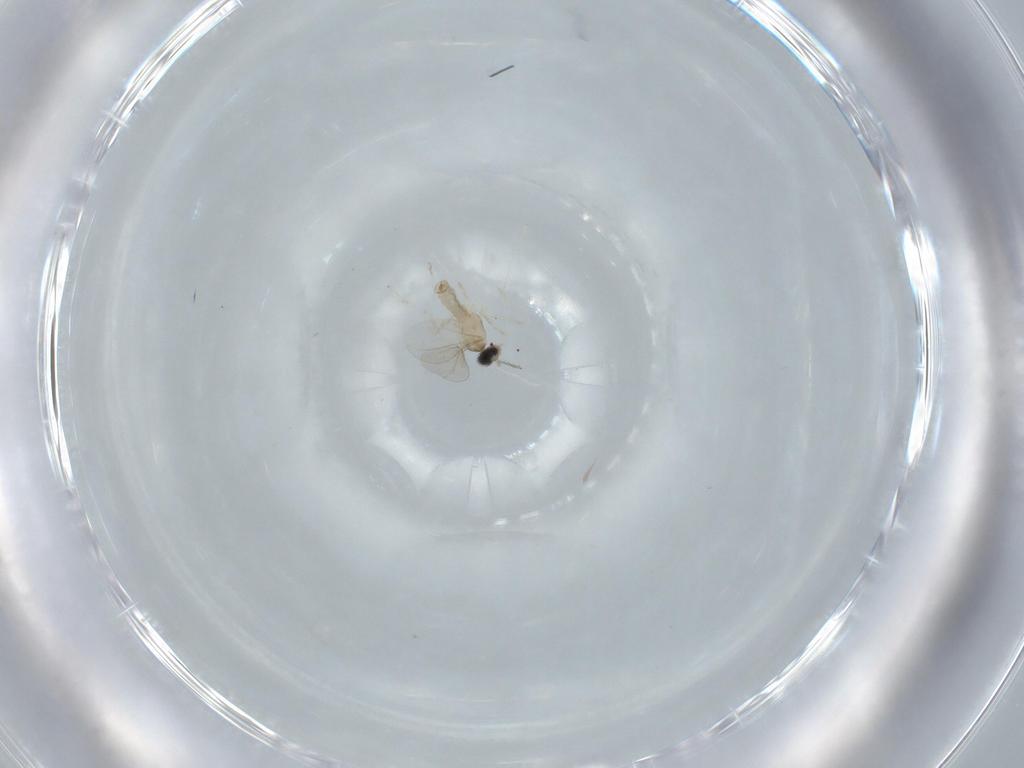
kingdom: Animalia
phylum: Arthropoda
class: Insecta
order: Diptera
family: Cecidomyiidae
